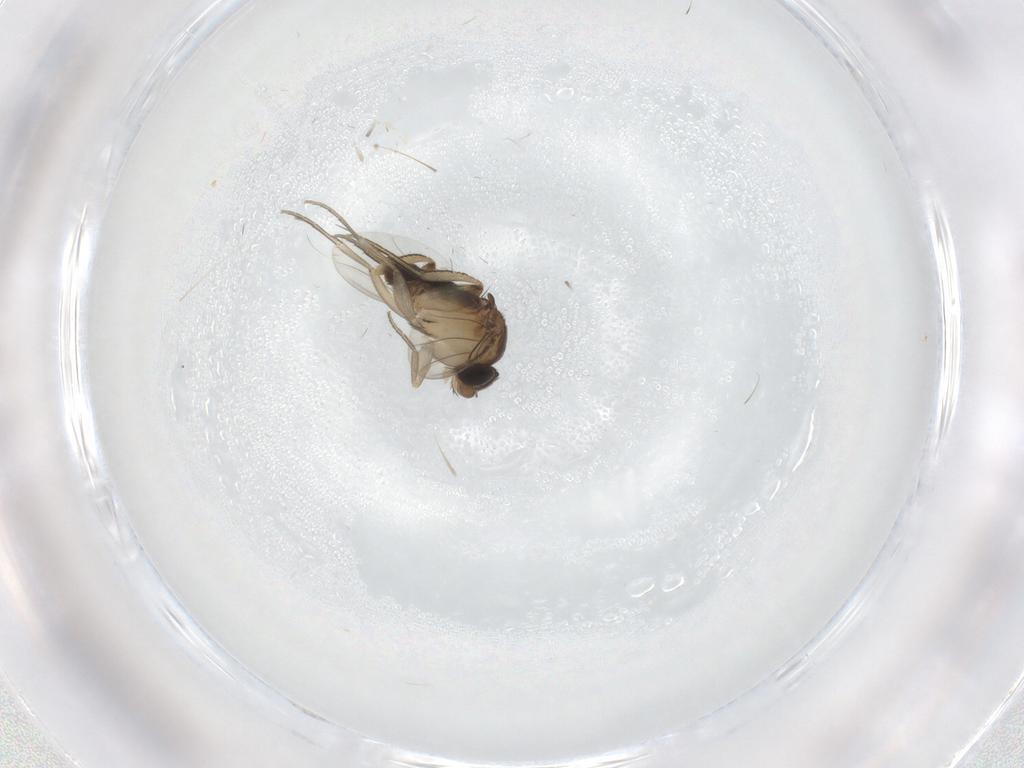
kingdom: Animalia
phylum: Arthropoda
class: Insecta
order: Diptera
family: Phoridae
